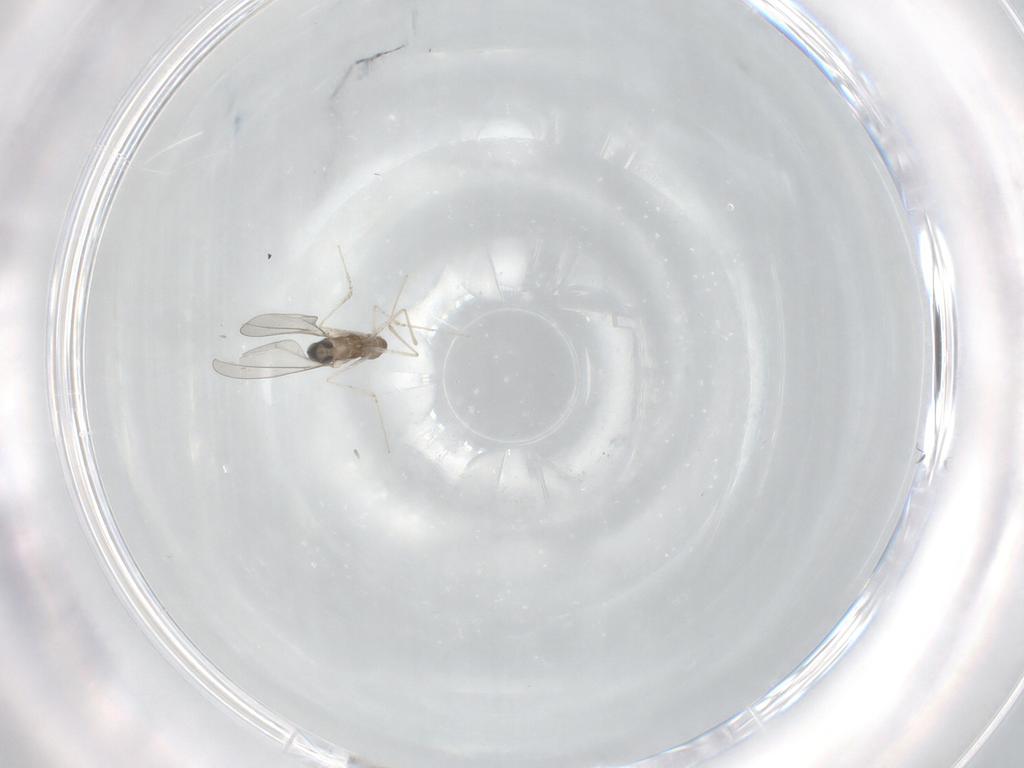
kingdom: Animalia
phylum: Arthropoda
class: Insecta
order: Diptera
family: Cecidomyiidae
